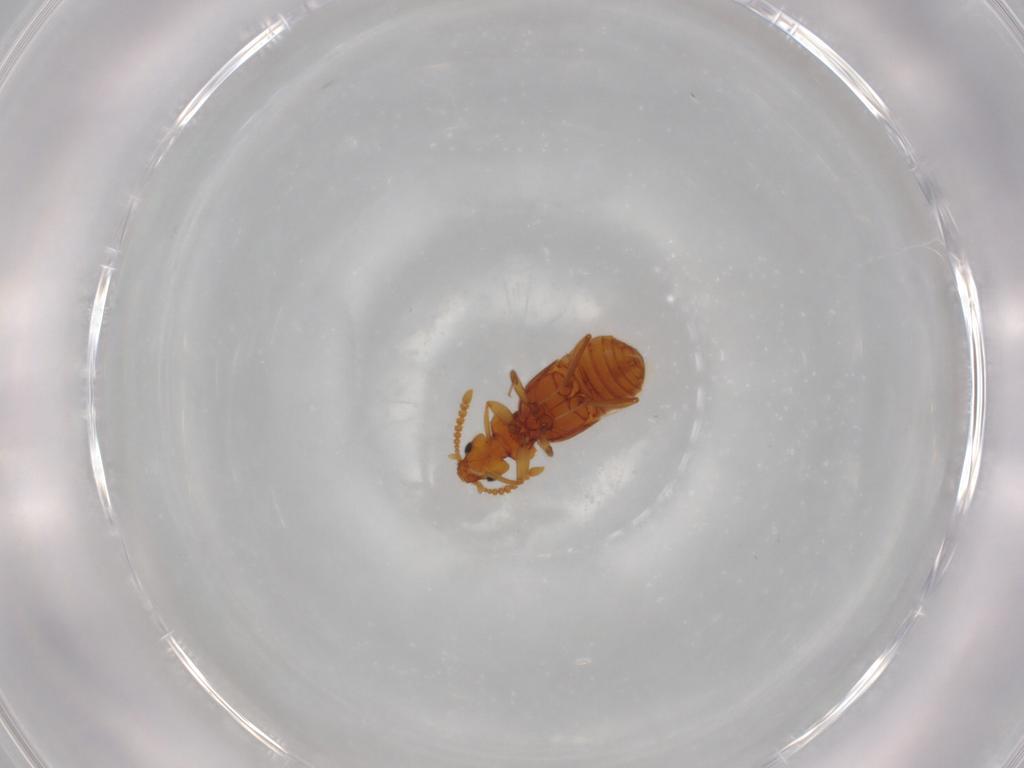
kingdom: Animalia
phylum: Arthropoda
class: Insecta
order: Coleoptera
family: Staphylinidae
